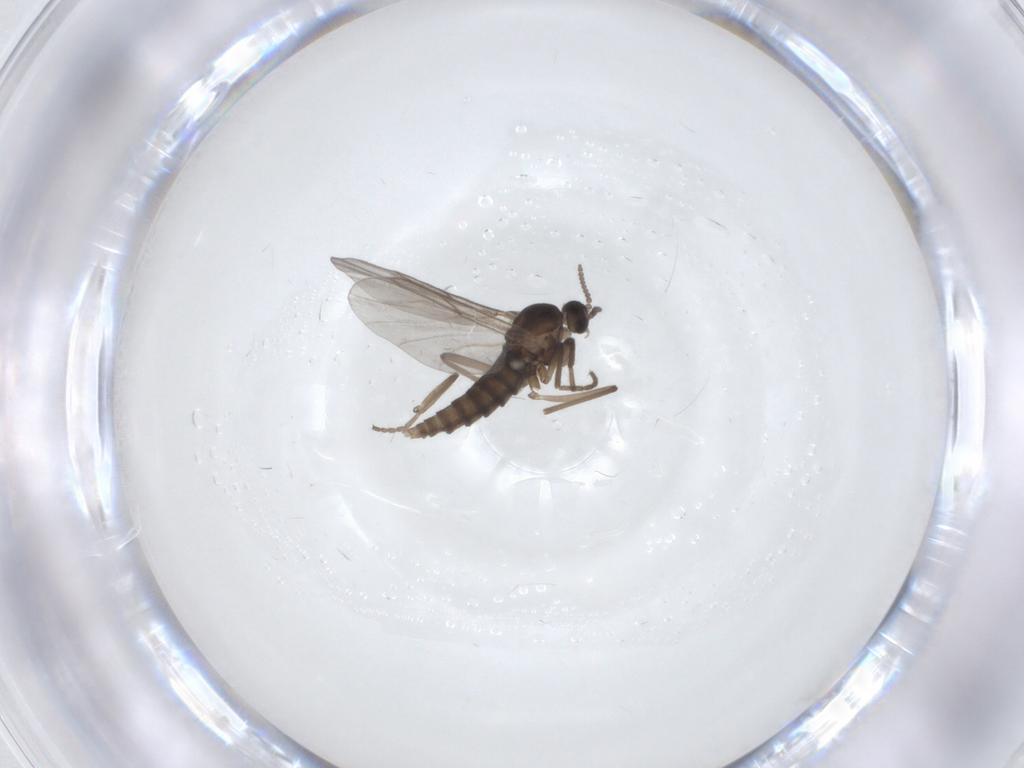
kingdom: Animalia
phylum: Arthropoda
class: Insecta
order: Diptera
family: Cecidomyiidae
